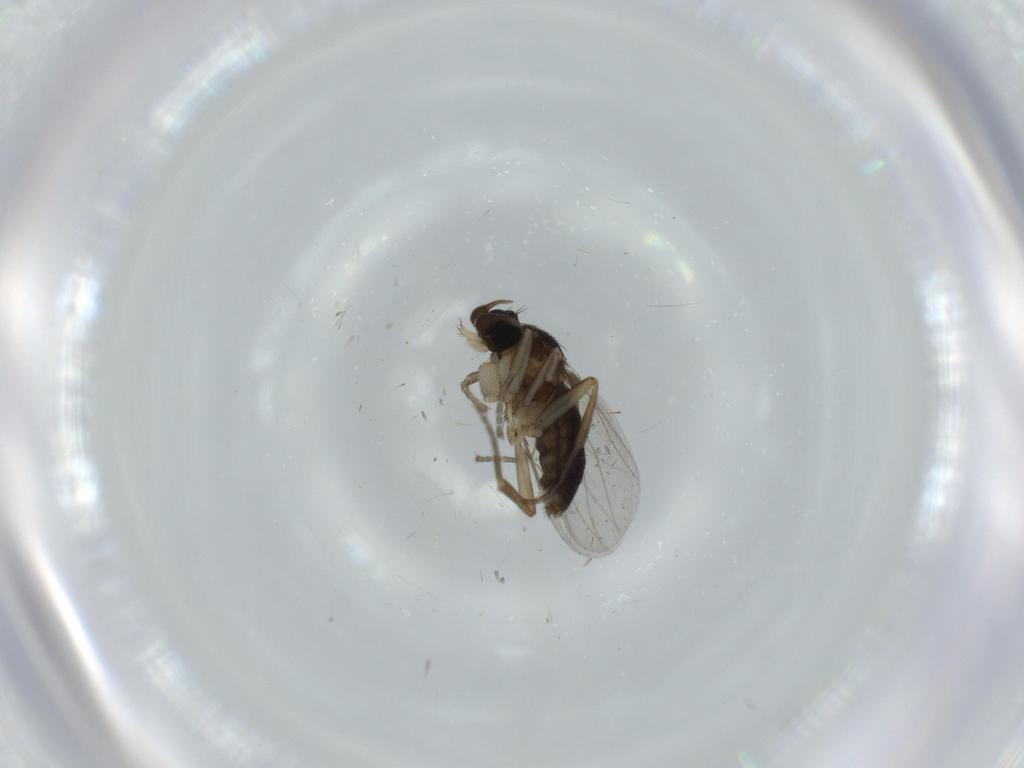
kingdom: Animalia
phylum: Arthropoda
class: Insecta
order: Diptera
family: Phoridae
